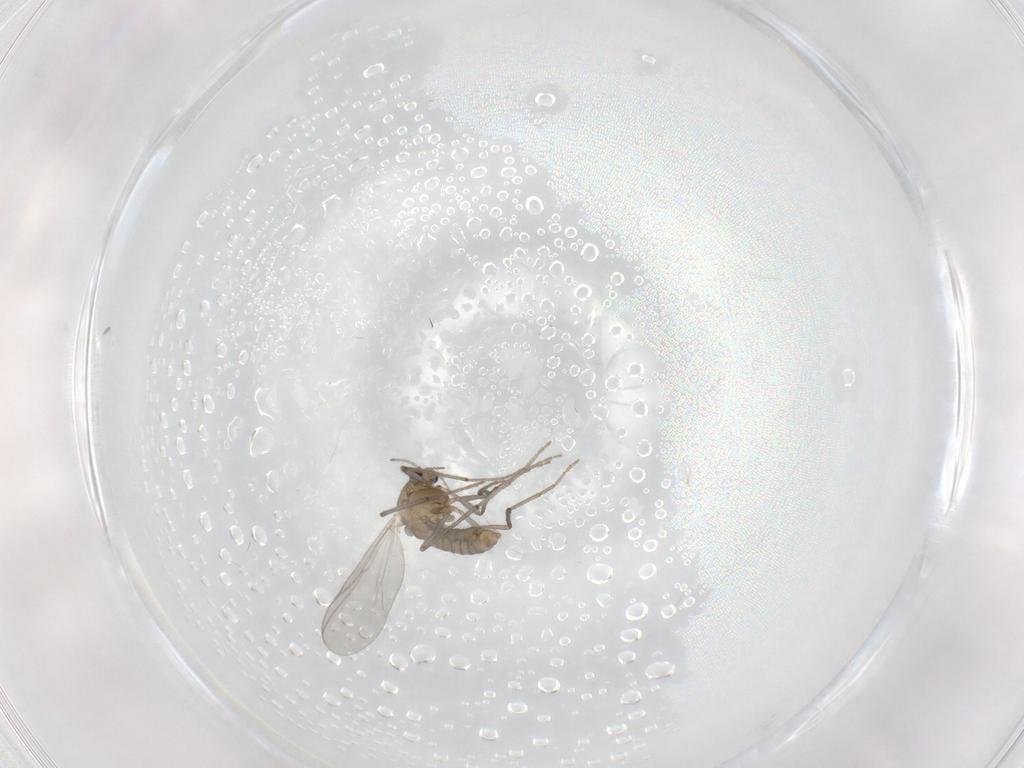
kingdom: Animalia
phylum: Arthropoda
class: Insecta
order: Diptera
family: Chironomidae
